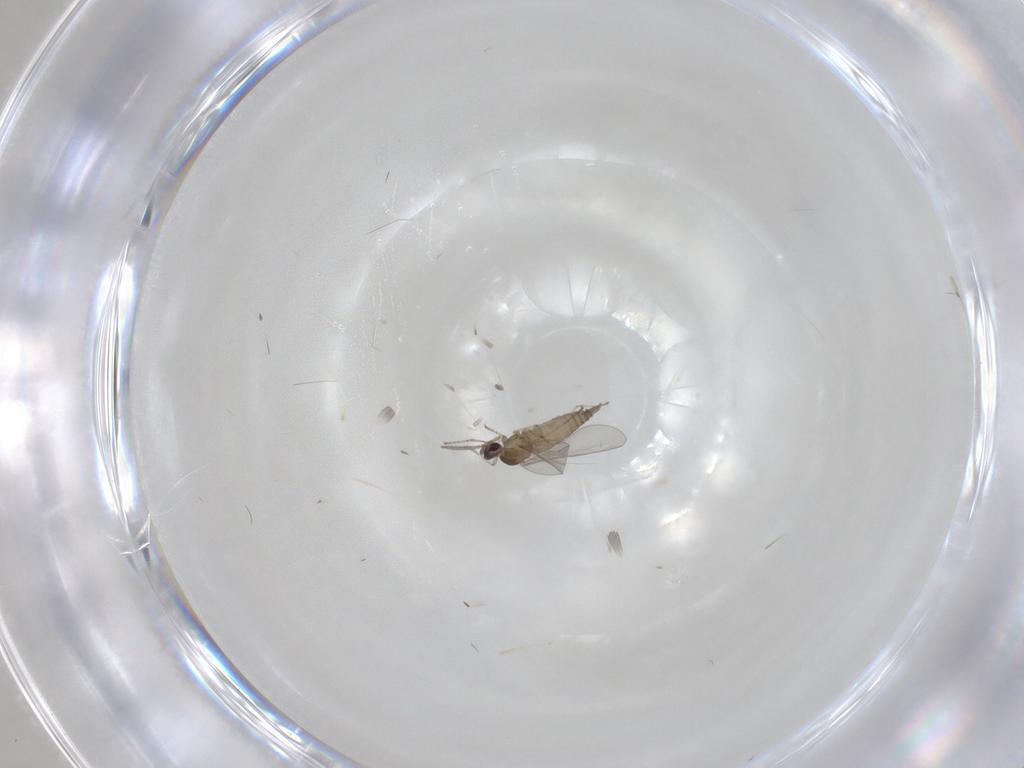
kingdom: Animalia
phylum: Arthropoda
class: Insecta
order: Diptera
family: Cecidomyiidae
